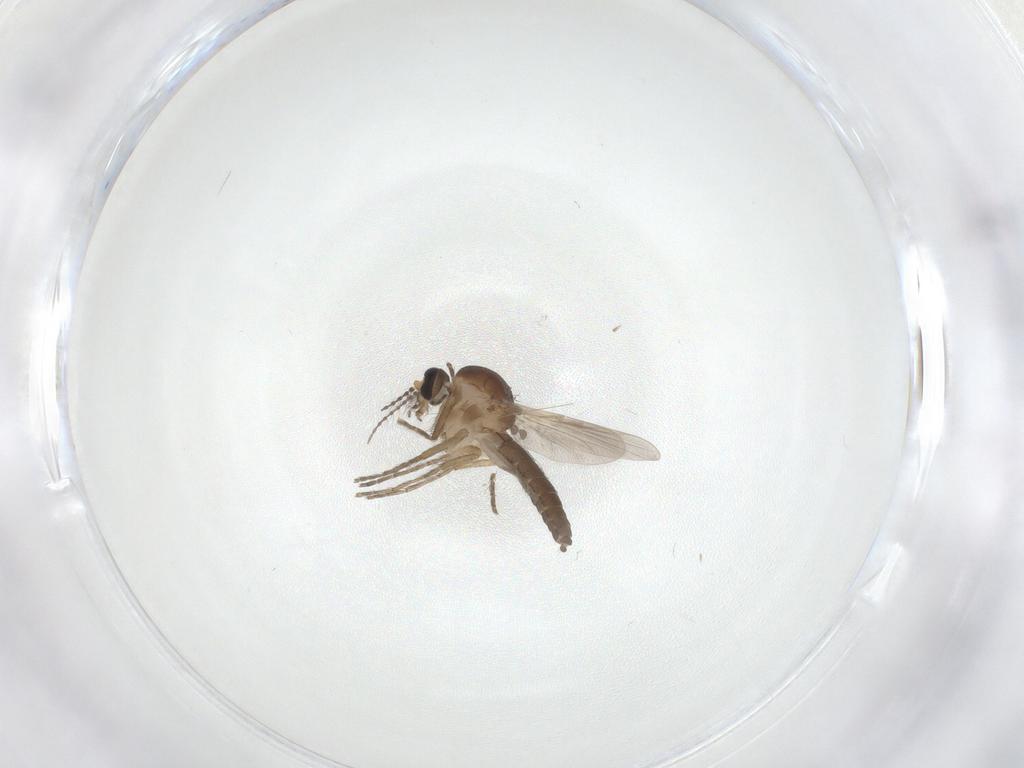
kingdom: Animalia
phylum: Arthropoda
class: Insecta
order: Diptera
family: Ceratopogonidae
